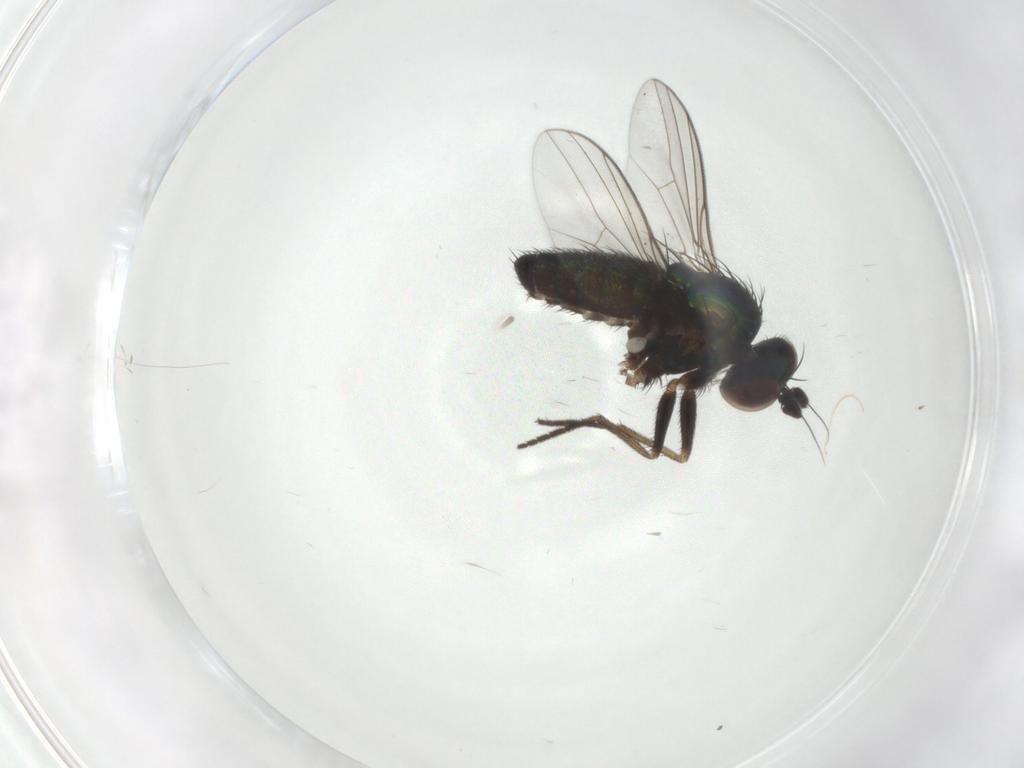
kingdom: Animalia
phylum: Arthropoda
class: Insecta
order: Diptera
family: Dolichopodidae
